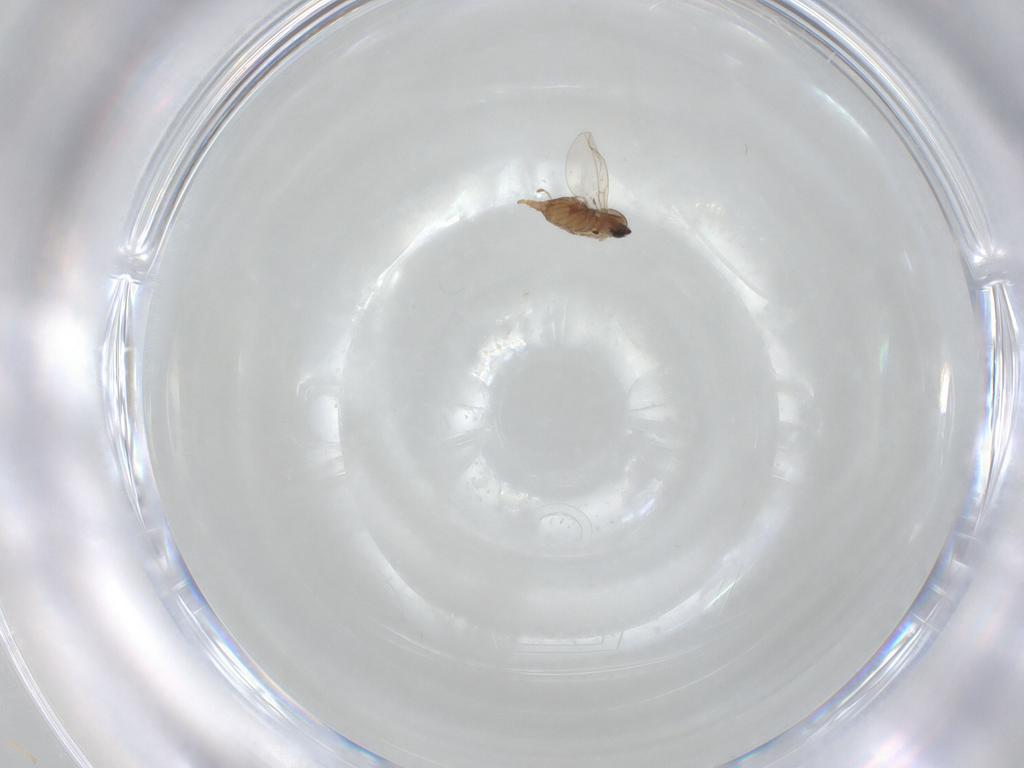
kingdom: Animalia
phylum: Arthropoda
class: Insecta
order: Diptera
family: Cecidomyiidae
